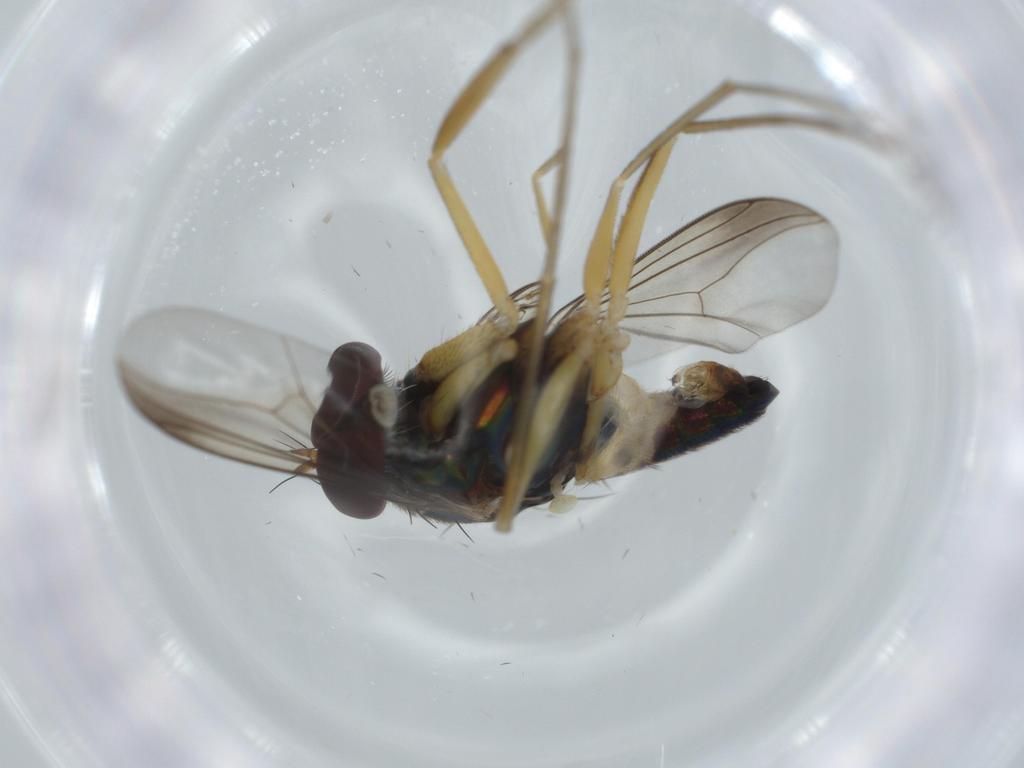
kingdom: Animalia
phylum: Arthropoda
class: Insecta
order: Diptera
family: Dolichopodidae
